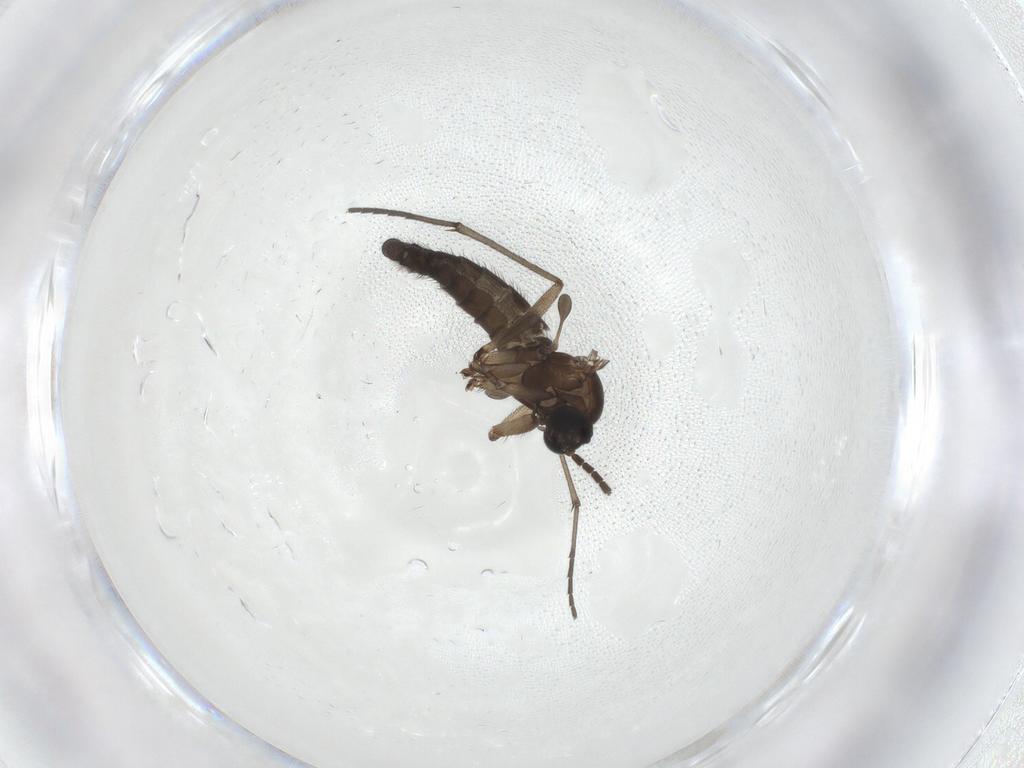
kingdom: Animalia
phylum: Arthropoda
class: Insecta
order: Diptera
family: Sciaridae
